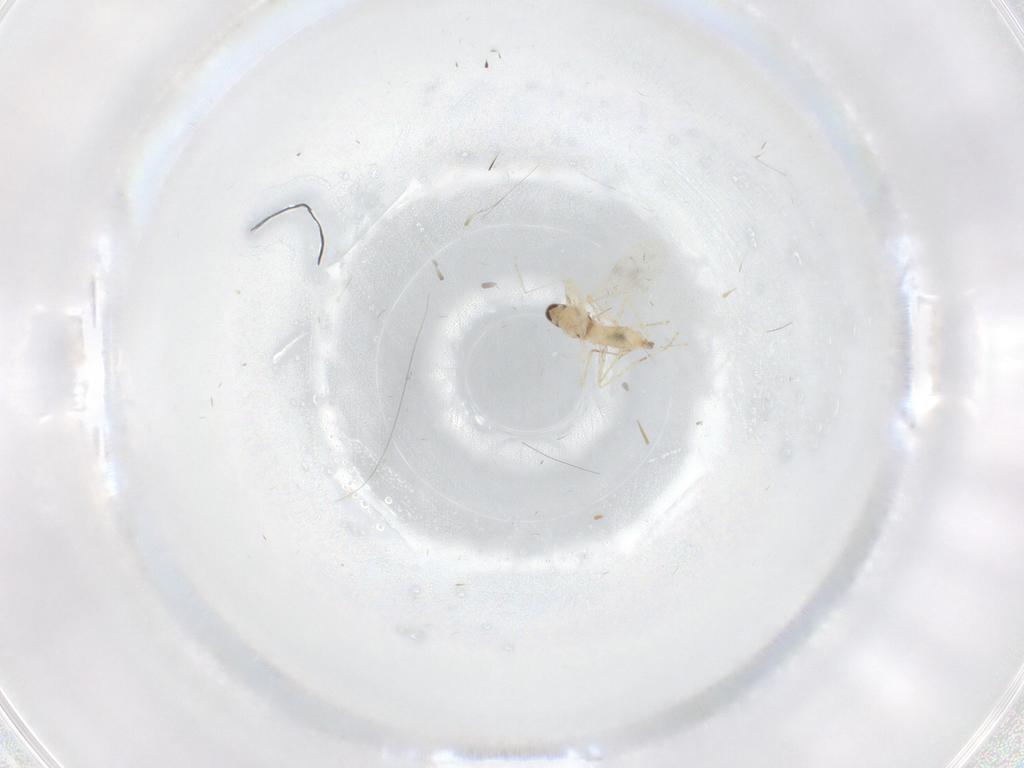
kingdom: Animalia
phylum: Arthropoda
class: Insecta
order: Diptera
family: Cecidomyiidae
